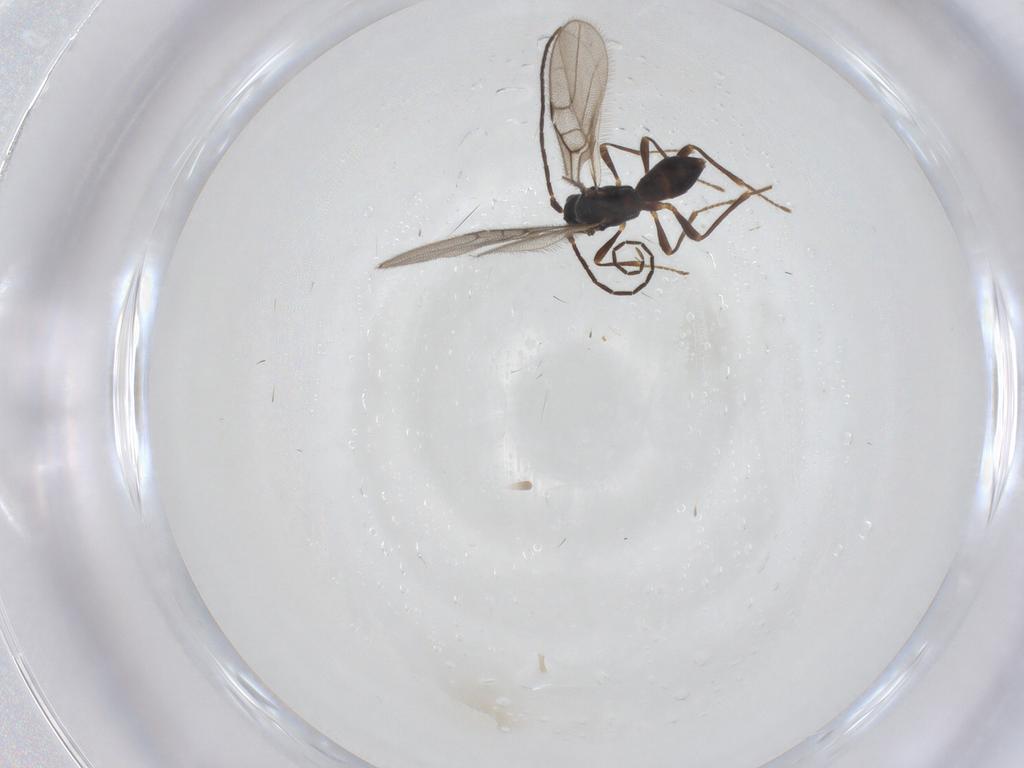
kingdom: Animalia
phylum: Arthropoda
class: Insecta
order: Hymenoptera
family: Braconidae
